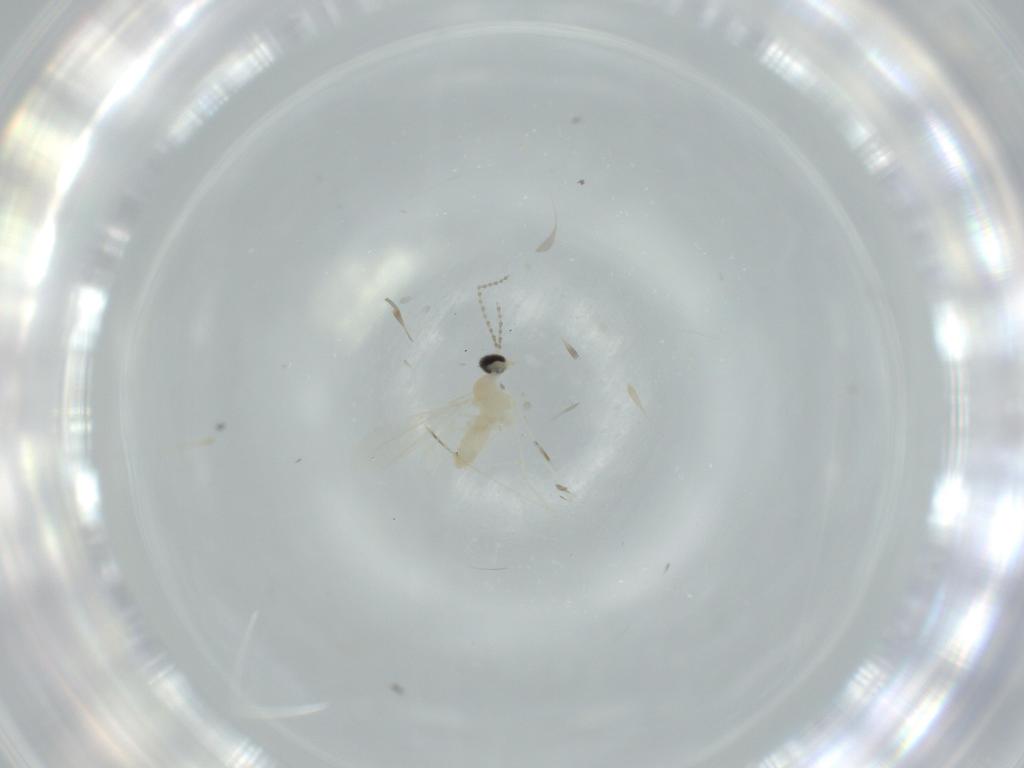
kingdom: Animalia
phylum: Arthropoda
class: Insecta
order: Diptera
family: Cecidomyiidae
